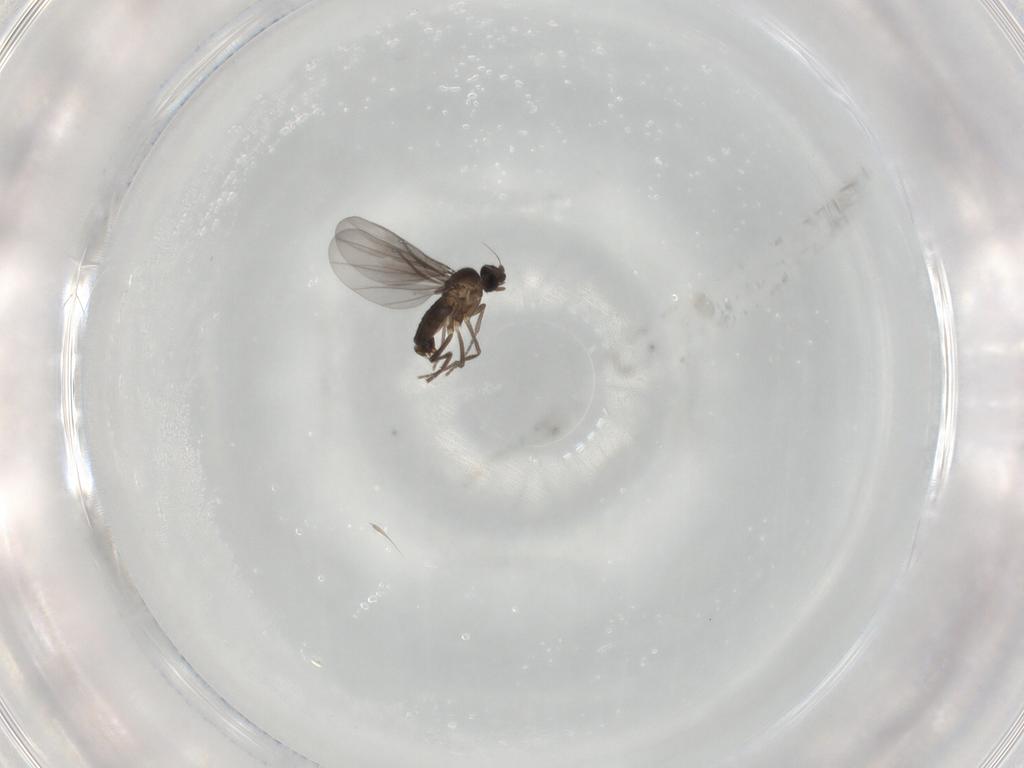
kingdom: Animalia
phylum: Arthropoda
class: Insecta
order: Diptera
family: Phoridae
